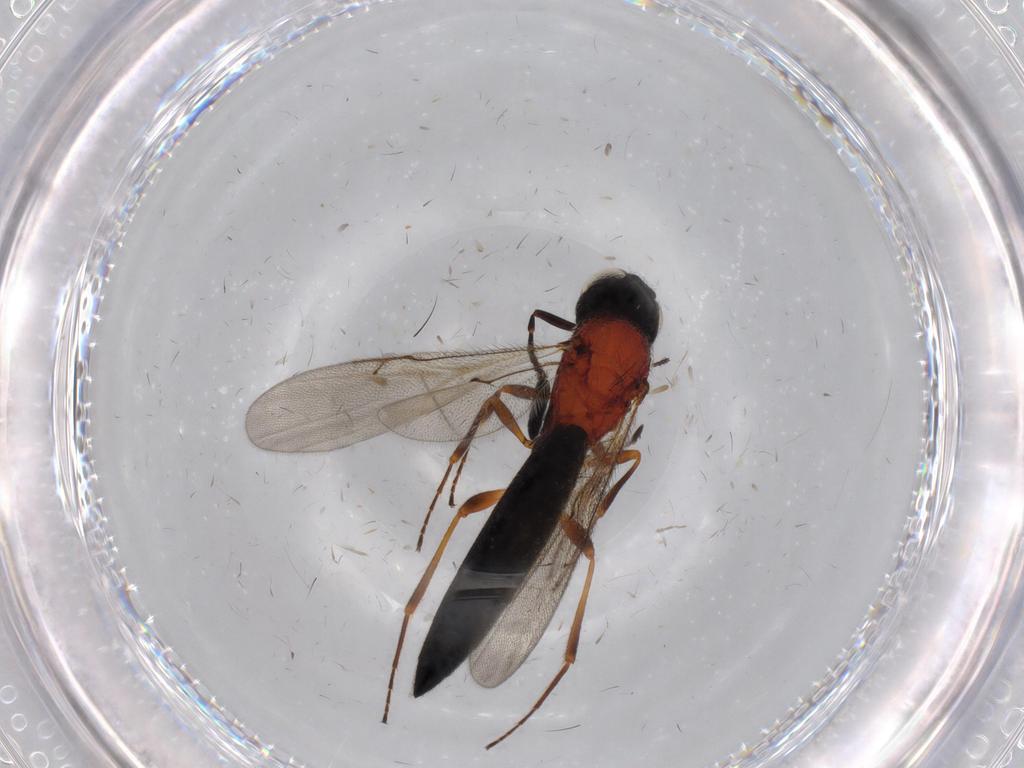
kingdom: Animalia
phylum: Arthropoda
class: Insecta
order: Hymenoptera
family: Scelionidae
